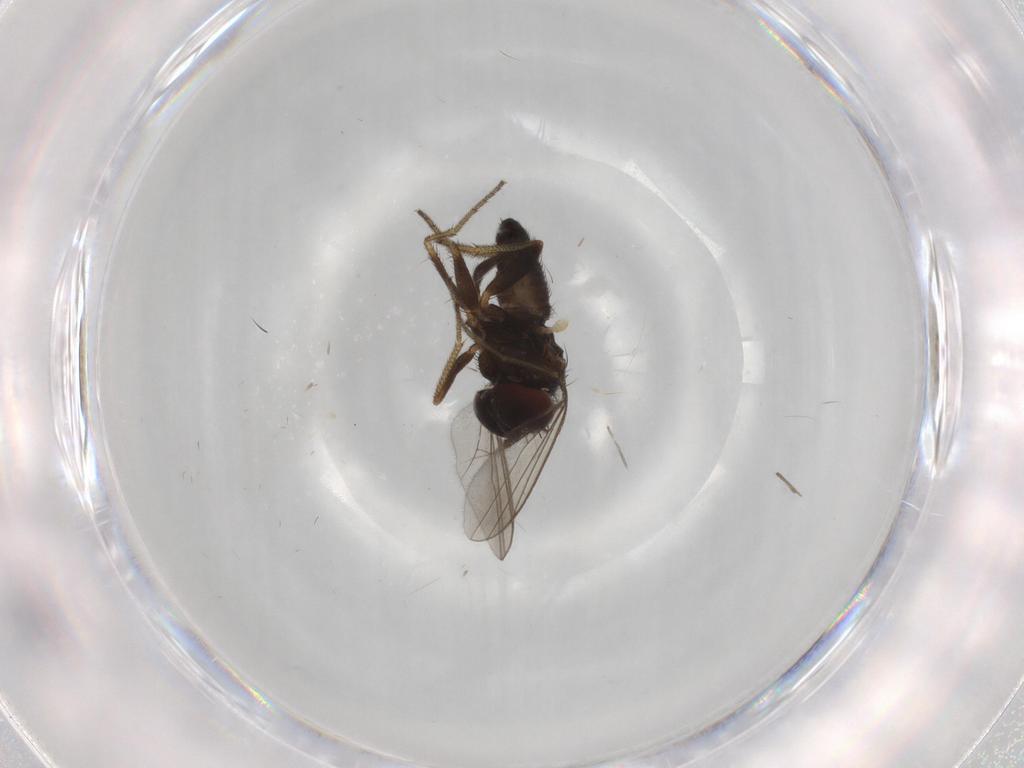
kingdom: Animalia
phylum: Arthropoda
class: Insecta
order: Diptera
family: Dolichopodidae
